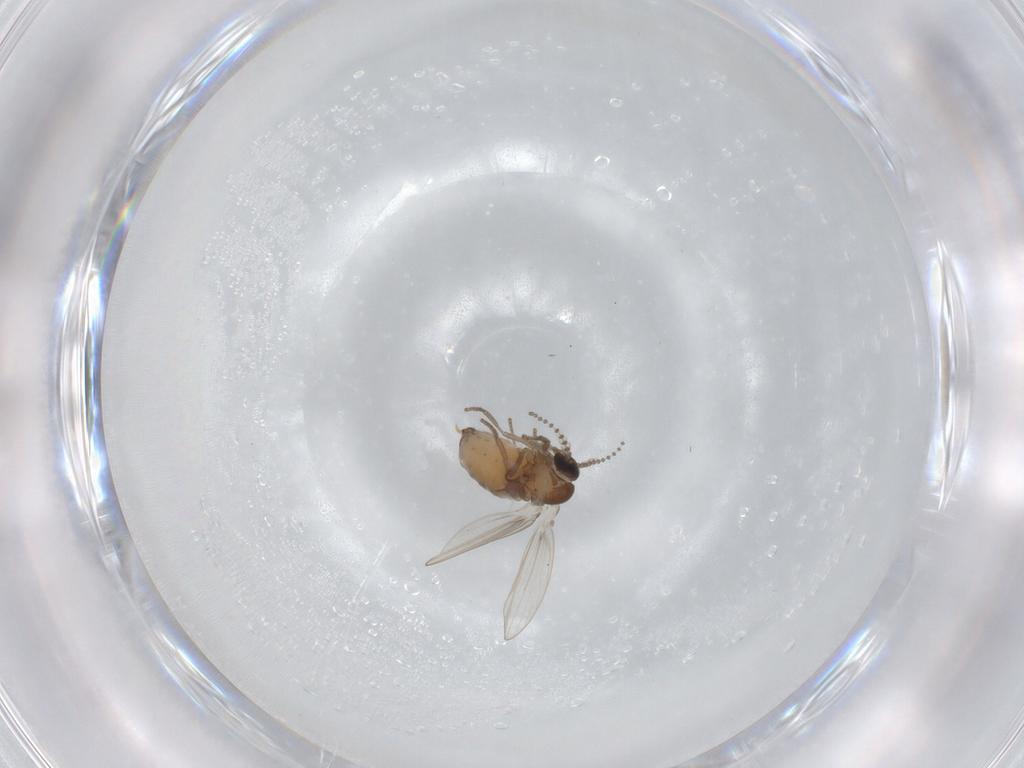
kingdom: Animalia
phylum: Arthropoda
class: Insecta
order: Diptera
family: Psychodidae
